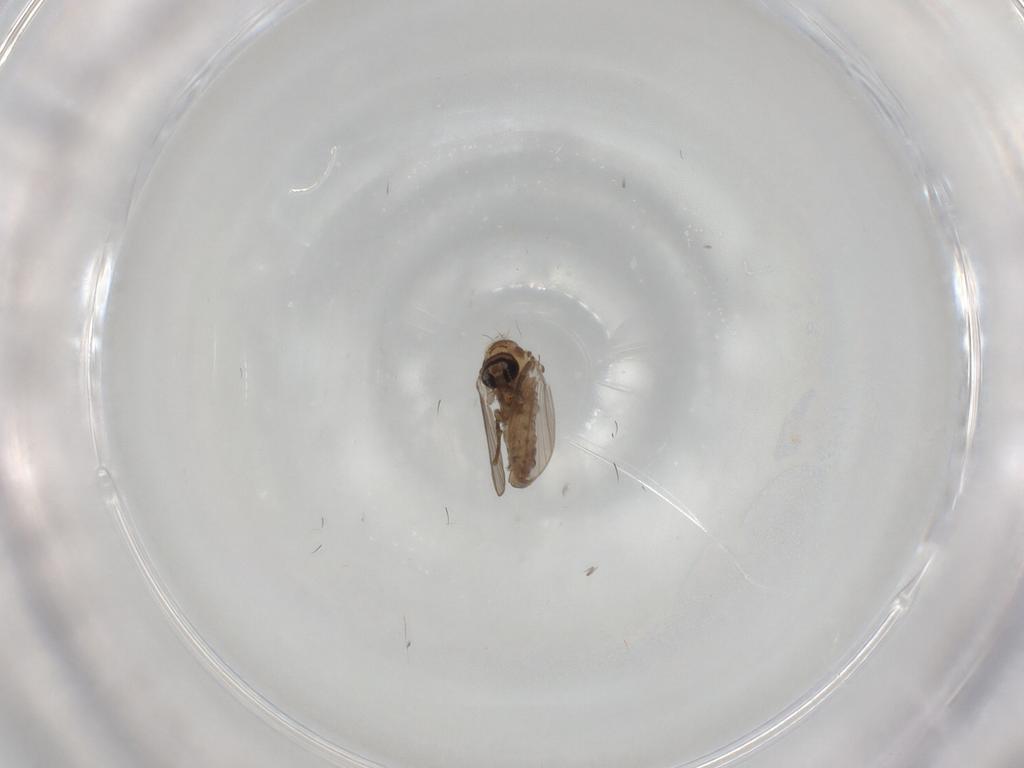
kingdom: Animalia
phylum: Arthropoda
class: Insecta
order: Diptera
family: Psychodidae
